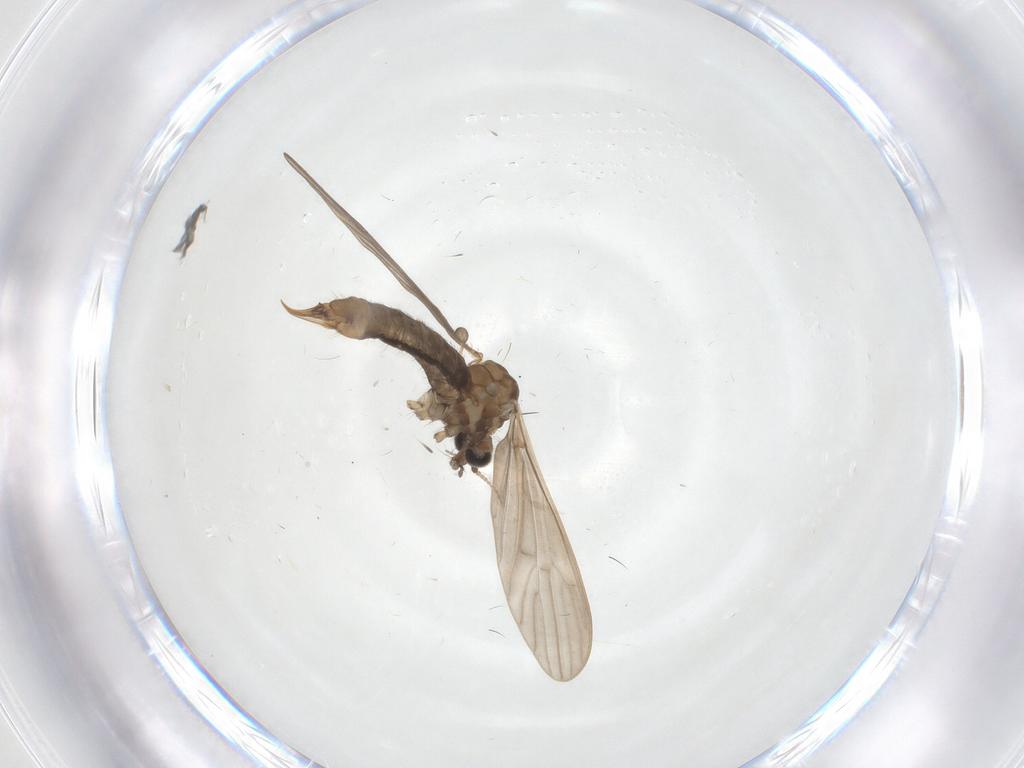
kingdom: Animalia
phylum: Arthropoda
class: Insecta
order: Diptera
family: Limoniidae
